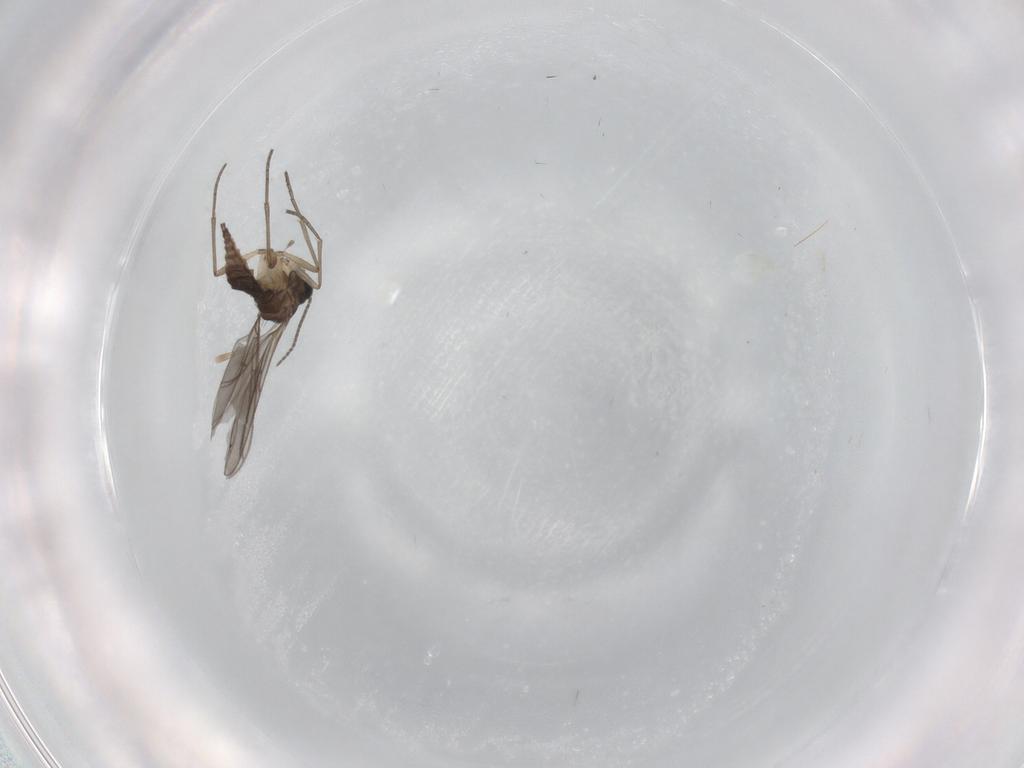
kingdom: Animalia
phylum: Arthropoda
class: Insecta
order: Diptera
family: Sciaridae
